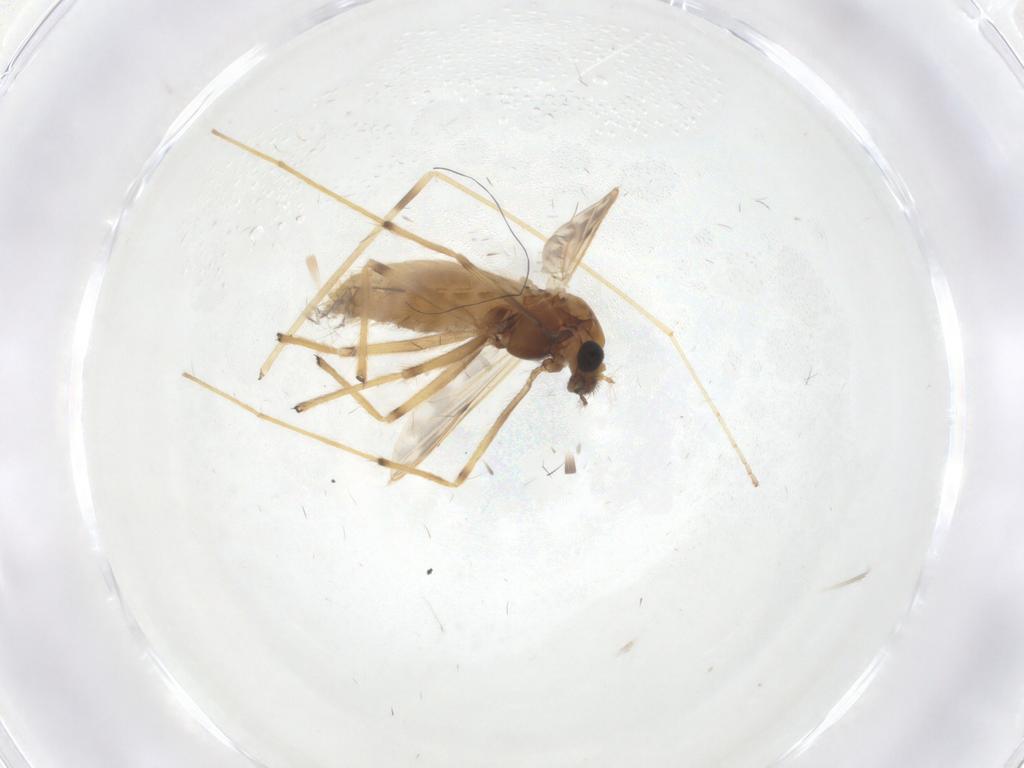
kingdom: Animalia
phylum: Arthropoda
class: Insecta
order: Diptera
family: Chironomidae
